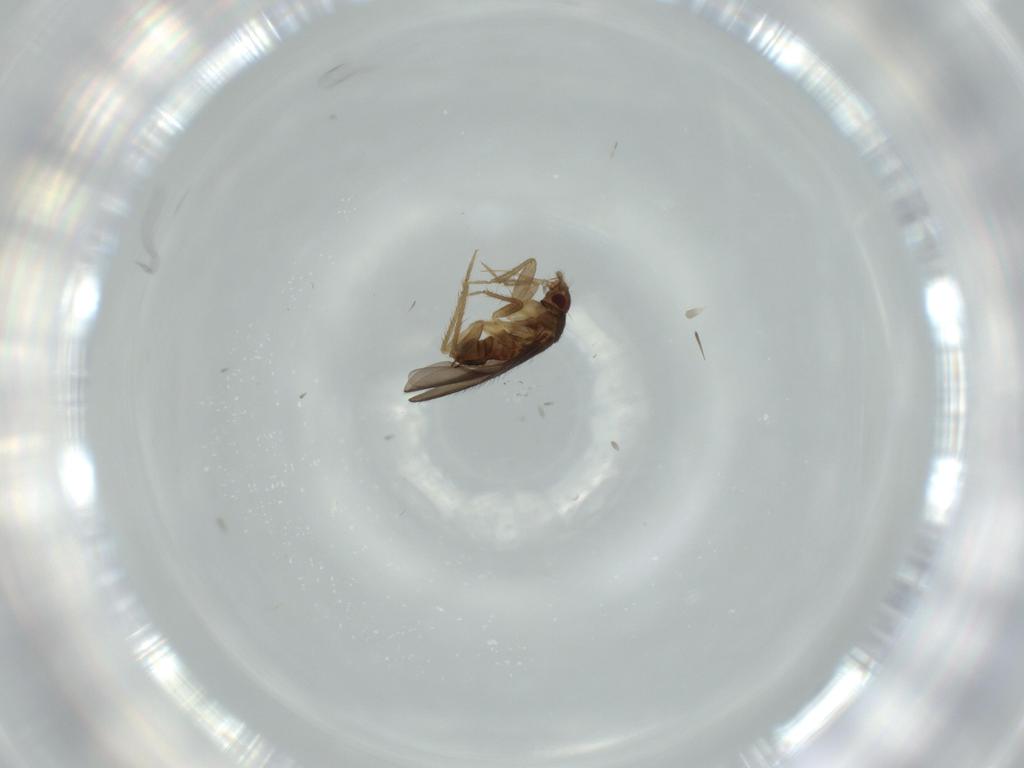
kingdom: Animalia
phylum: Arthropoda
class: Insecta
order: Hemiptera
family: Ceratocombidae
